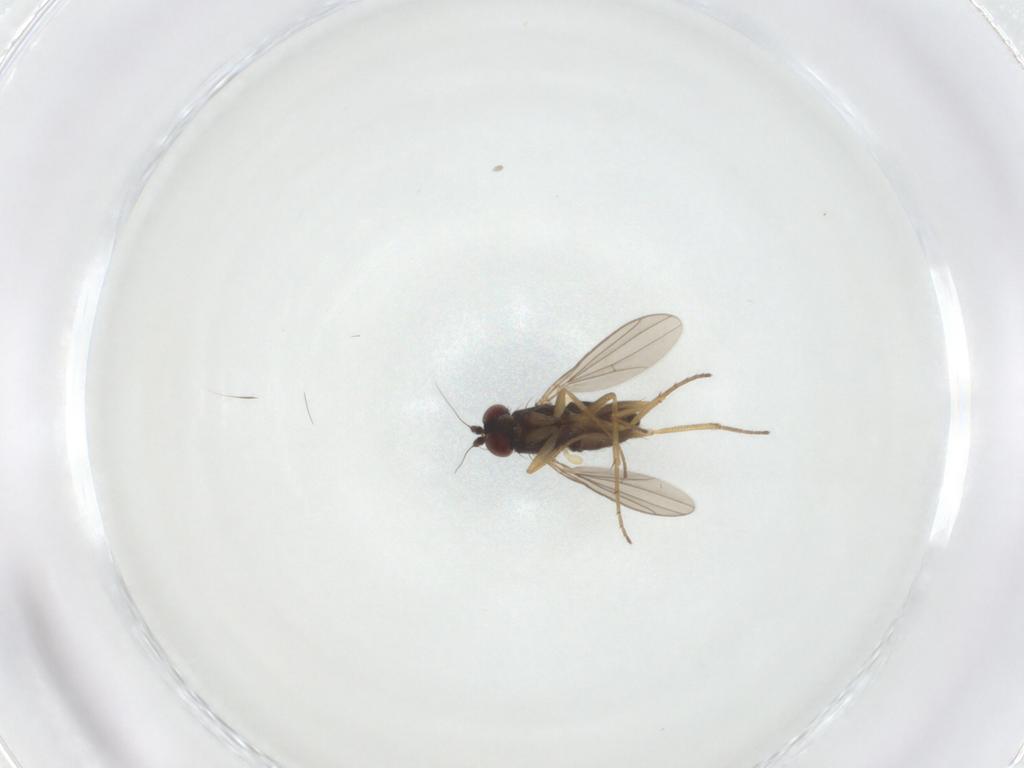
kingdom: Animalia
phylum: Arthropoda
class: Insecta
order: Diptera
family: Dolichopodidae
